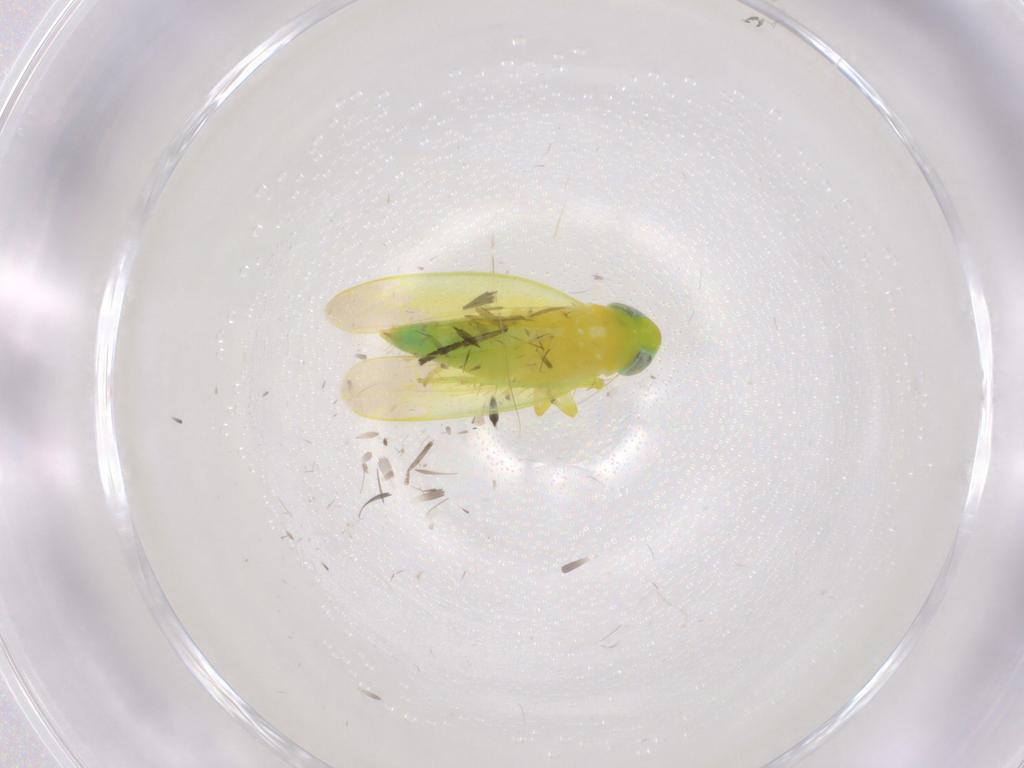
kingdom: Animalia
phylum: Arthropoda
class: Insecta
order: Hemiptera
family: Cicadellidae
